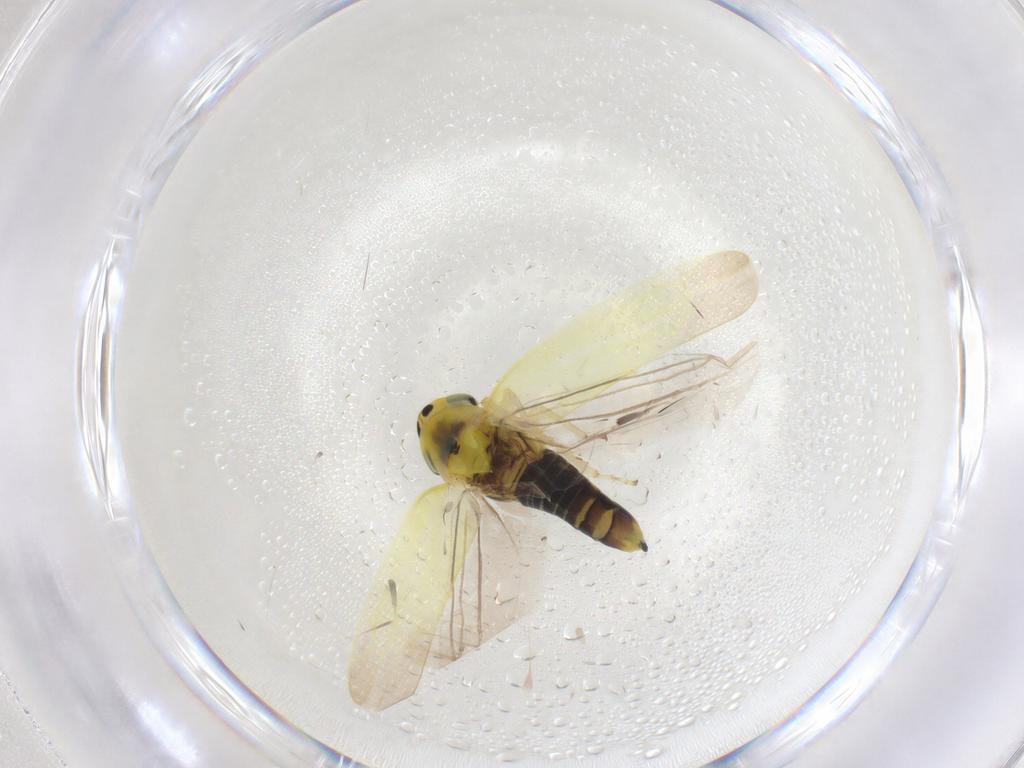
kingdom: Animalia
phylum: Arthropoda
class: Insecta
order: Hemiptera
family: Cicadellidae
